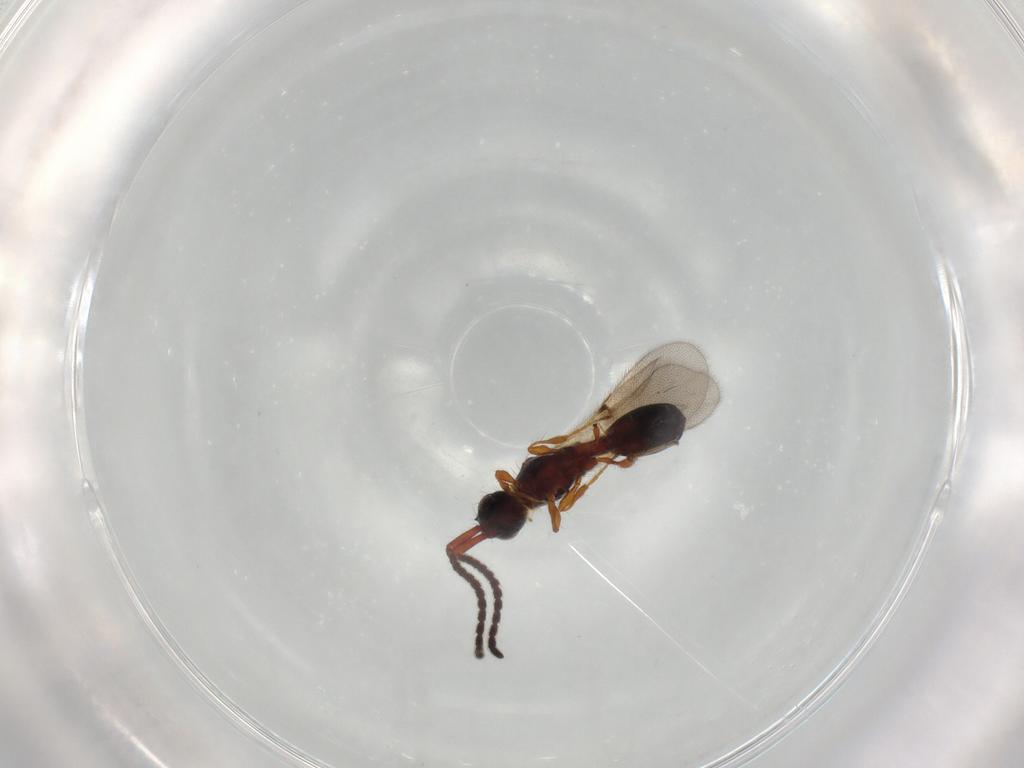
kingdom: Animalia
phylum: Arthropoda
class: Insecta
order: Hymenoptera
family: Diapriidae
